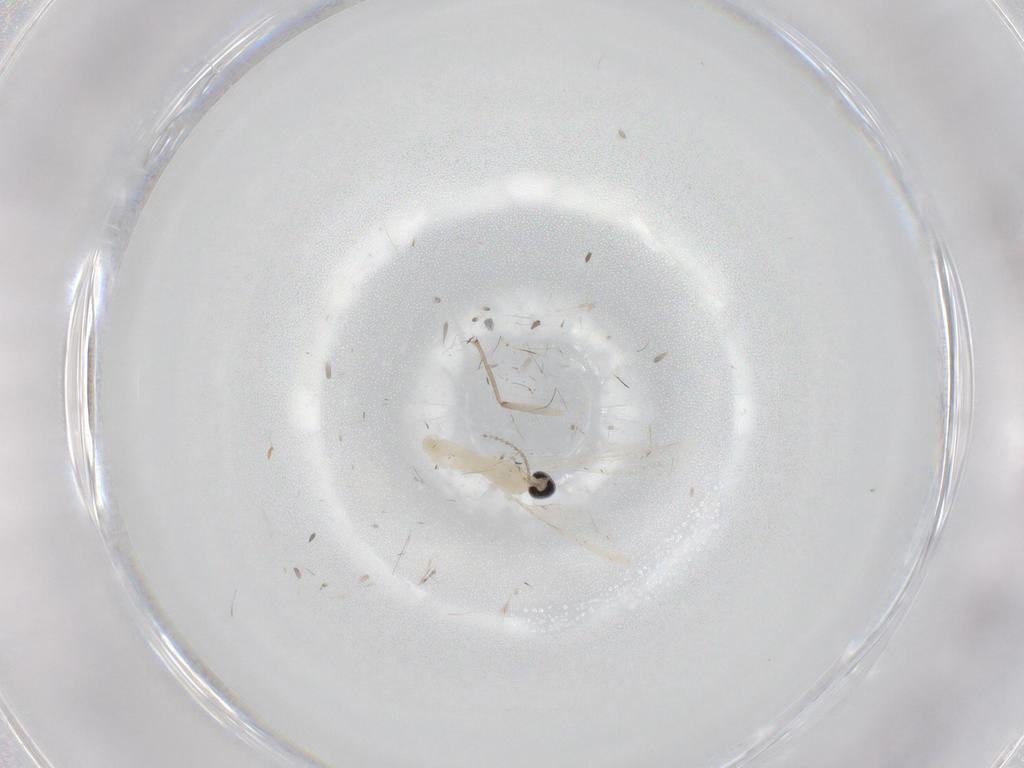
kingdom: Animalia
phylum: Arthropoda
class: Insecta
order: Diptera
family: Cecidomyiidae
